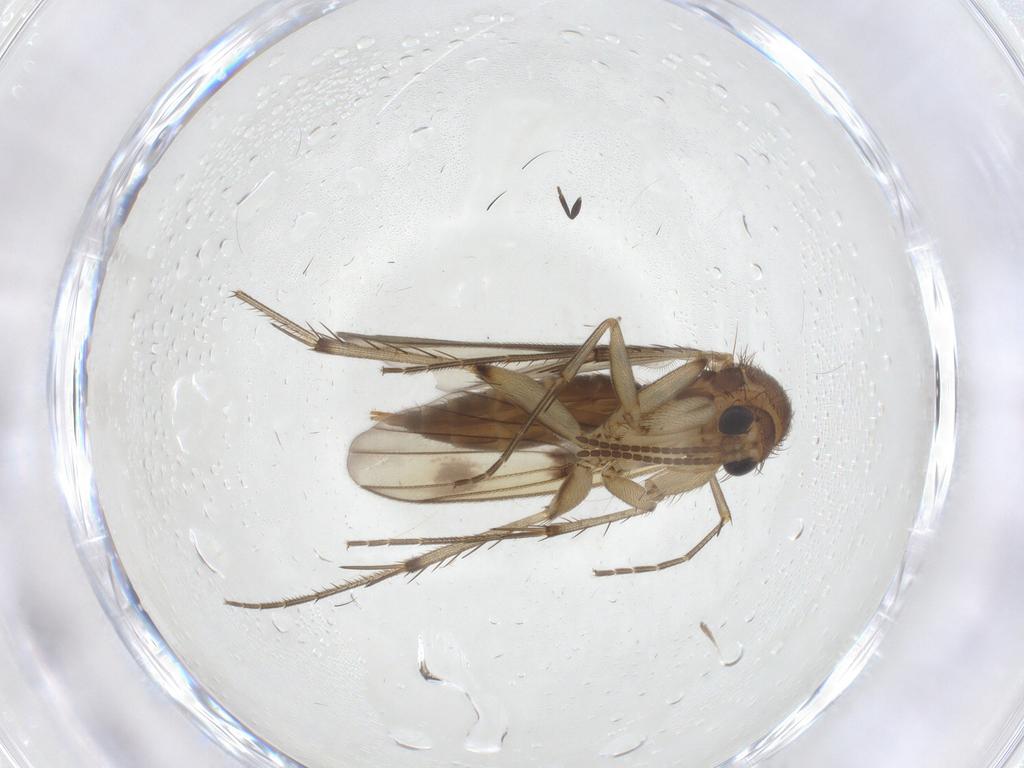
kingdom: Animalia
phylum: Arthropoda
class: Insecta
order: Diptera
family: Mycetophilidae
